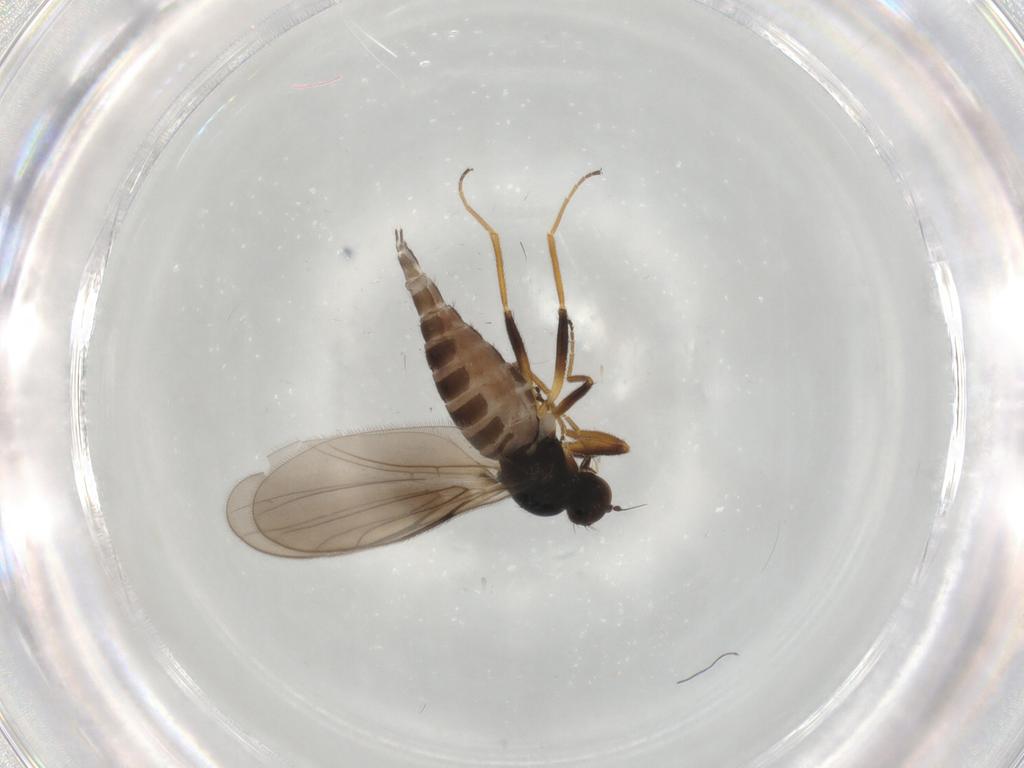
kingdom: Animalia
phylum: Arthropoda
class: Insecta
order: Diptera
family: Hybotidae
